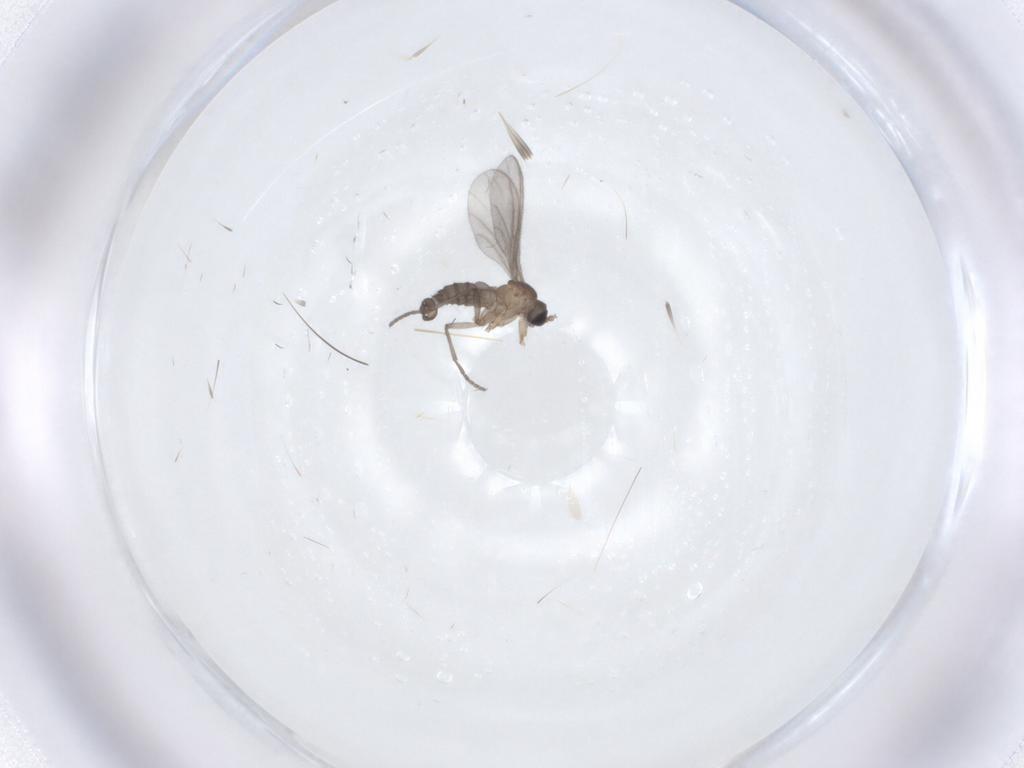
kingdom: Animalia
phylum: Arthropoda
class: Insecta
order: Diptera
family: Sciaridae
